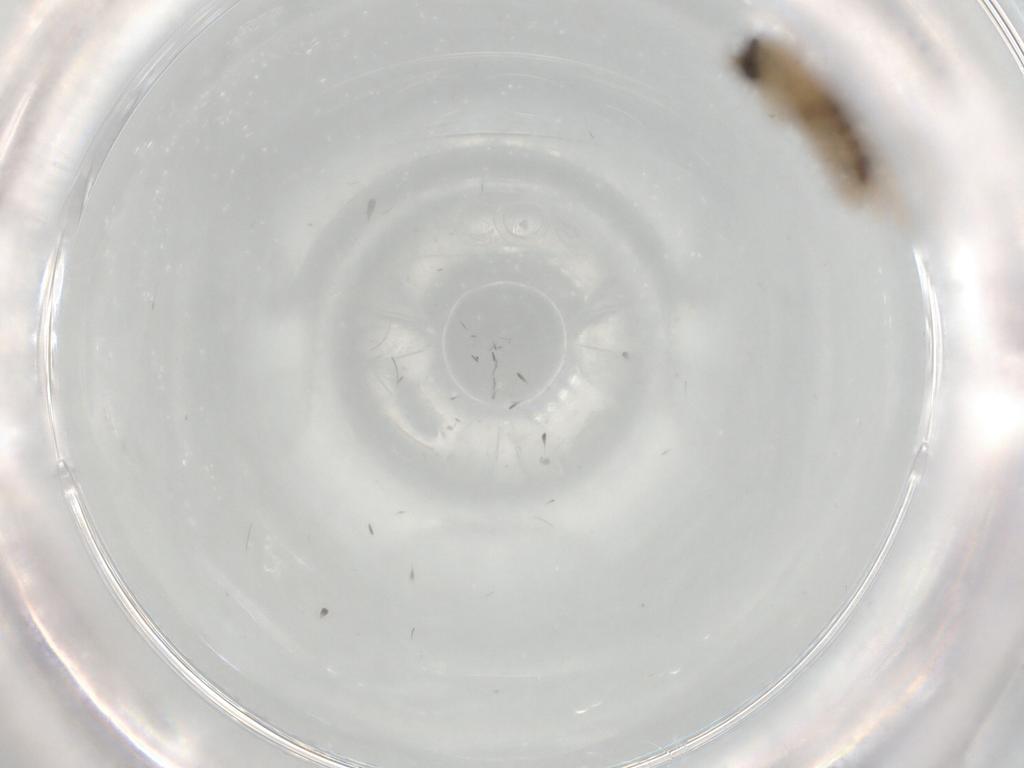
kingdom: Animalia
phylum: Arthropoda
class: Insecta
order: Diptera
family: Sciaridae
